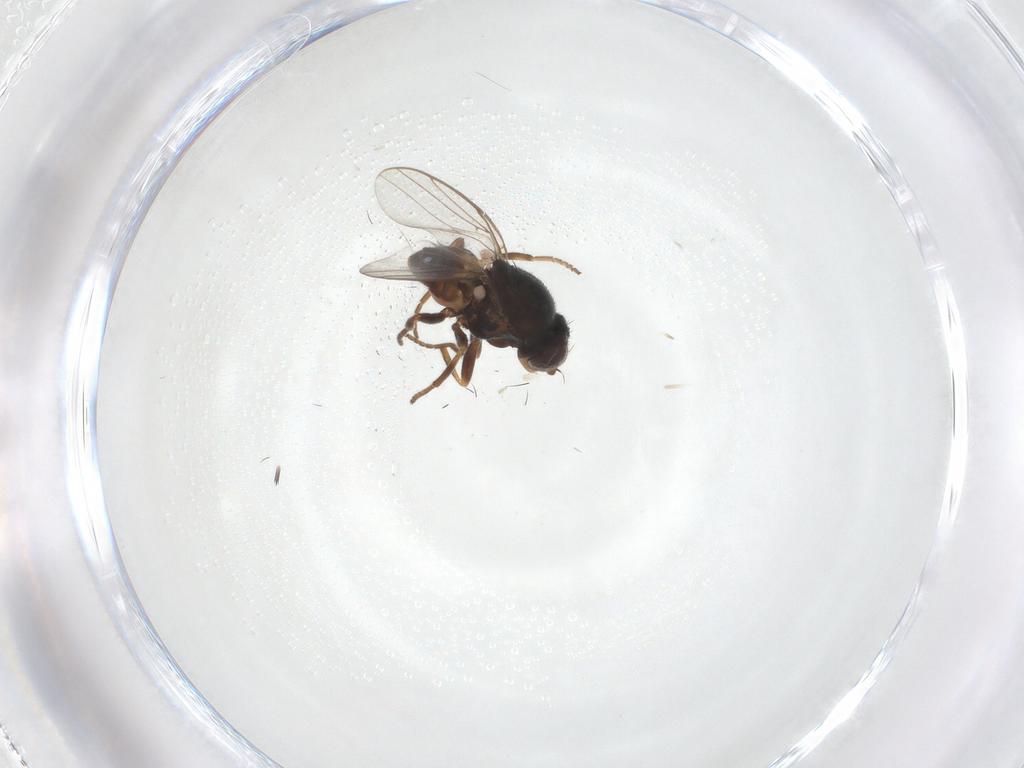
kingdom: Animalia
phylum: Arthropoda
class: Insecta
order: Diptera
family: Chloropidae
